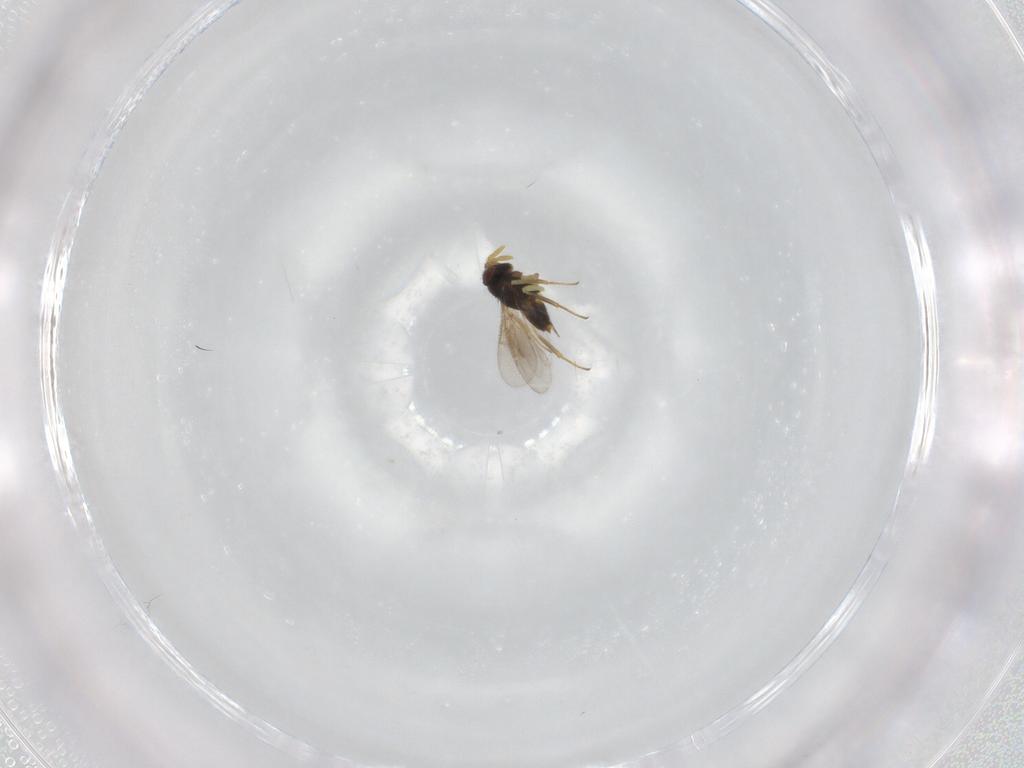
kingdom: Animalia
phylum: Arthropoda
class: Insecta
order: Hymenoptera
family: Aphelinidae
